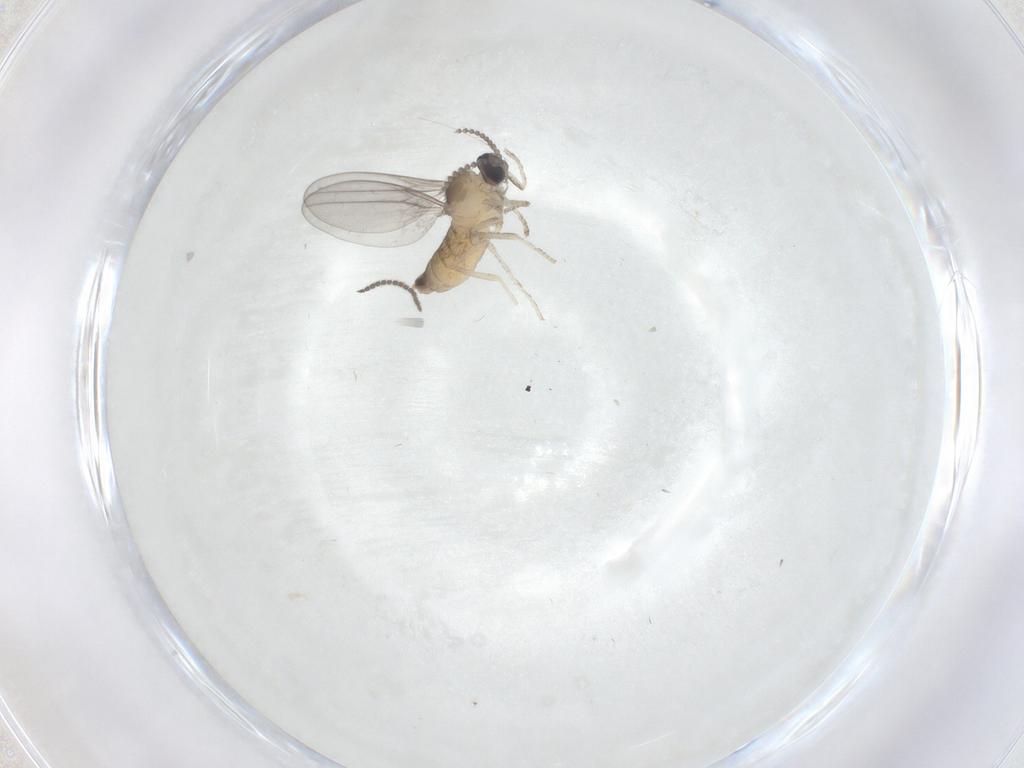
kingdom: Animalia
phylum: Arthropoda
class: Insecta
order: Diptera
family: Sciaridae
